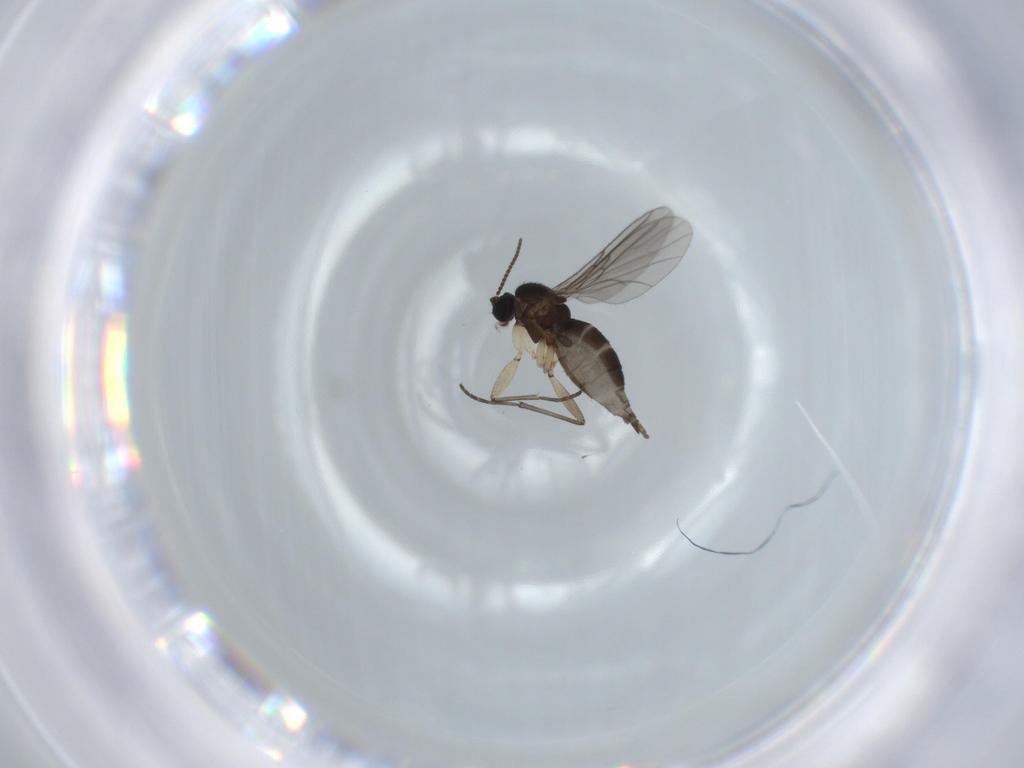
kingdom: Animalia
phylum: Arthropoda
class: Insecta
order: Diptera
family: Sciaridae
